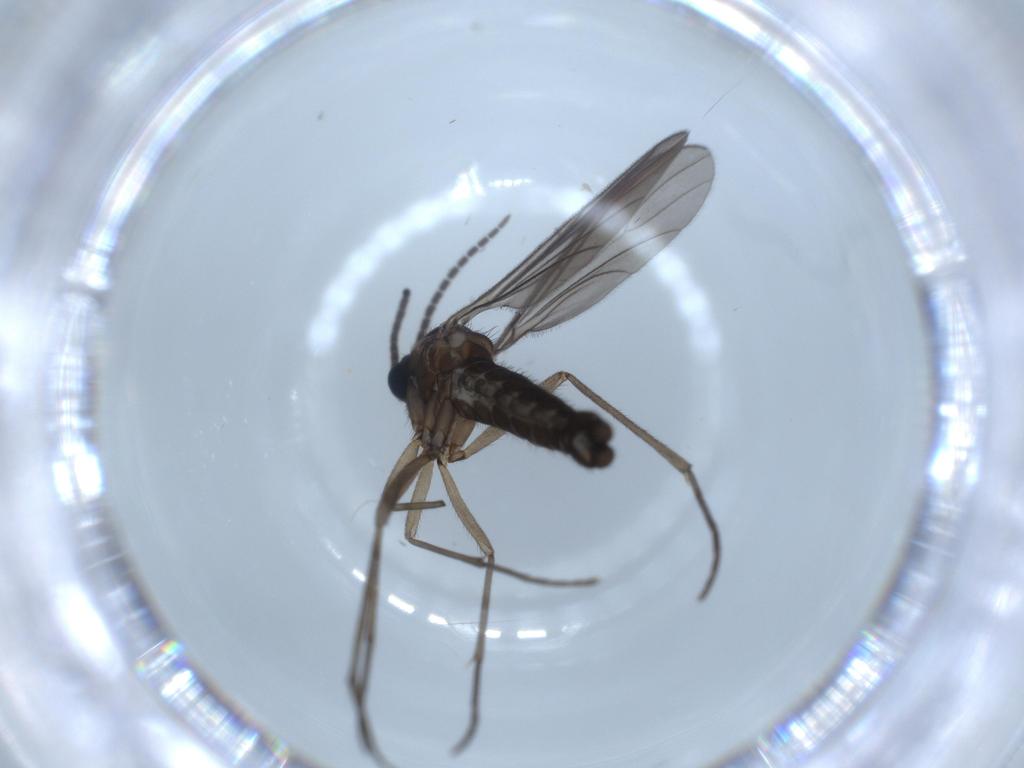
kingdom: Animalia
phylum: Arthropoda
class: Insecta
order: Diptera
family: Sciaridae
